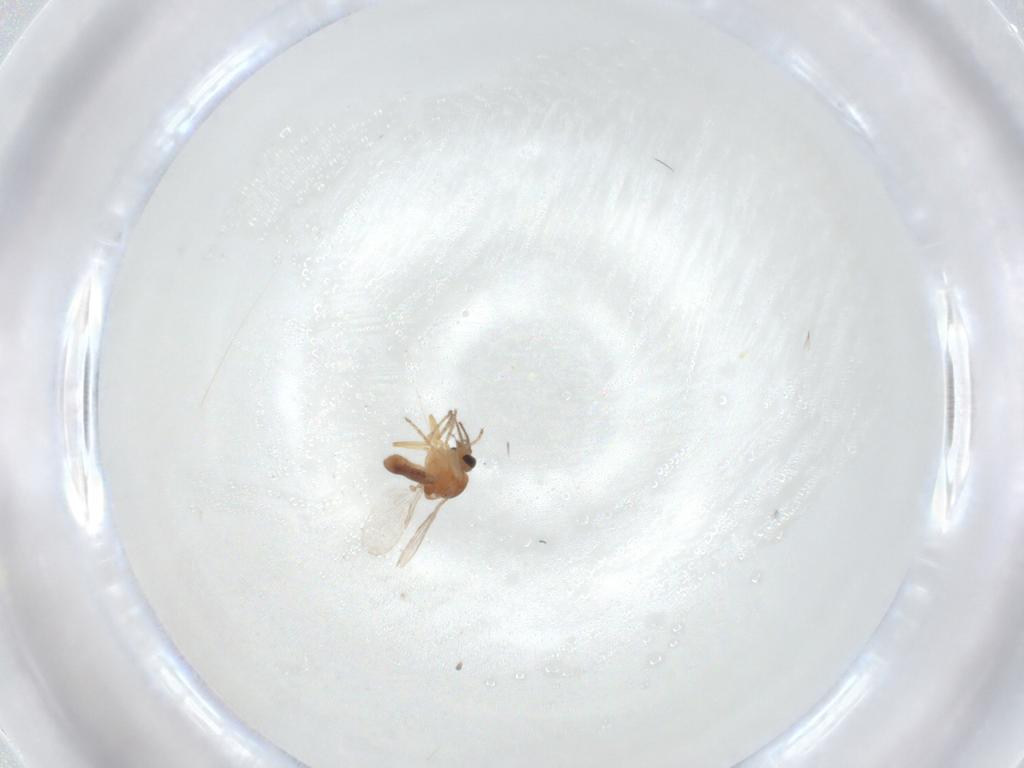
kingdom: Animalia
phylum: Arthropoda
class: Insecta
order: Diptera
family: Ceratopogonidae
